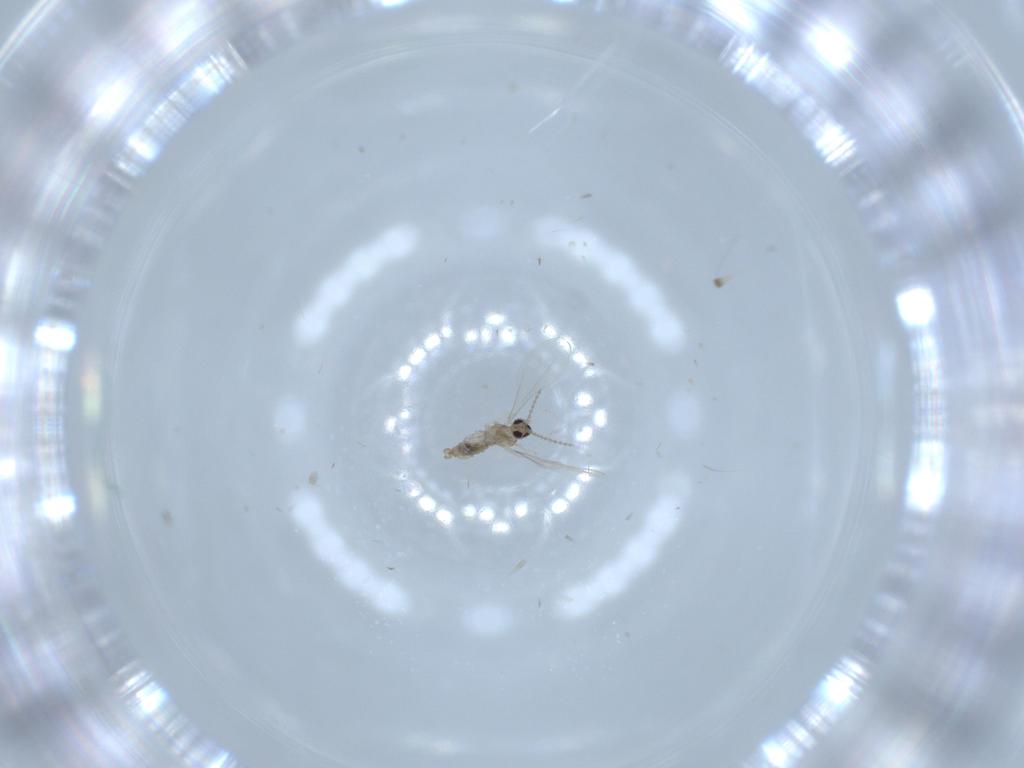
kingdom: Animalia
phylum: Arthropoda
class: Insecta
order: Diptera
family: Cecidomyiidae
